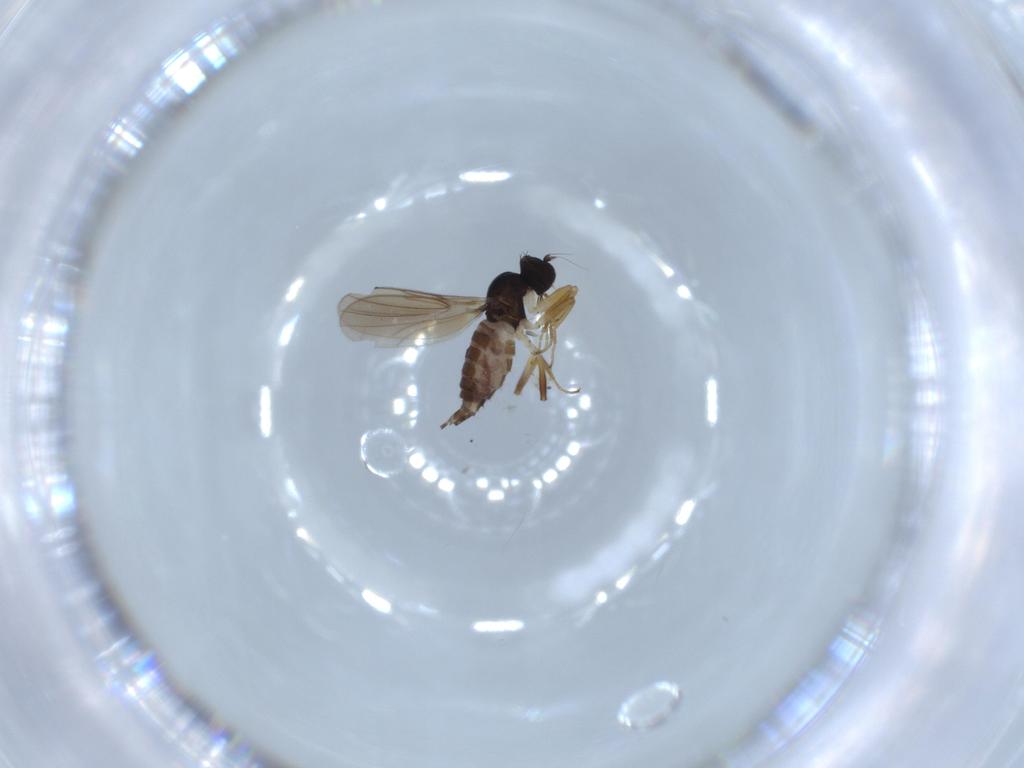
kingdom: Animalia
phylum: Arthropoda
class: Insecta
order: Diptera
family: Hybotidae
